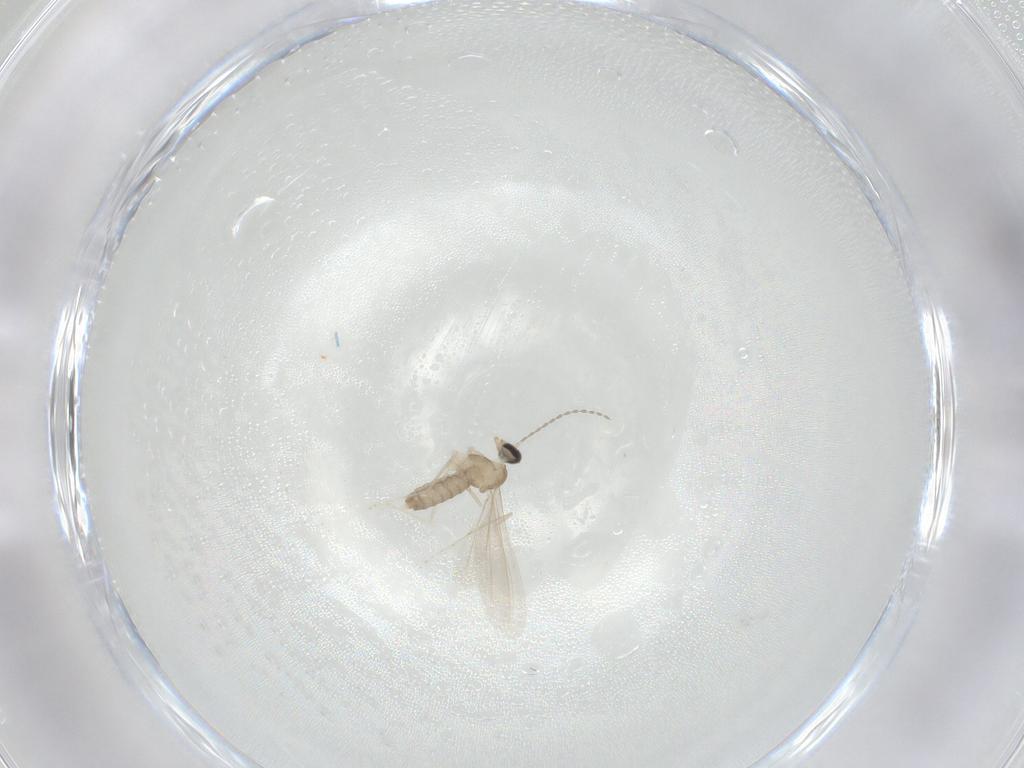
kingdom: Animalia
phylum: Arthropoda
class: Insecta
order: Diptera
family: Cecidomyiidae
